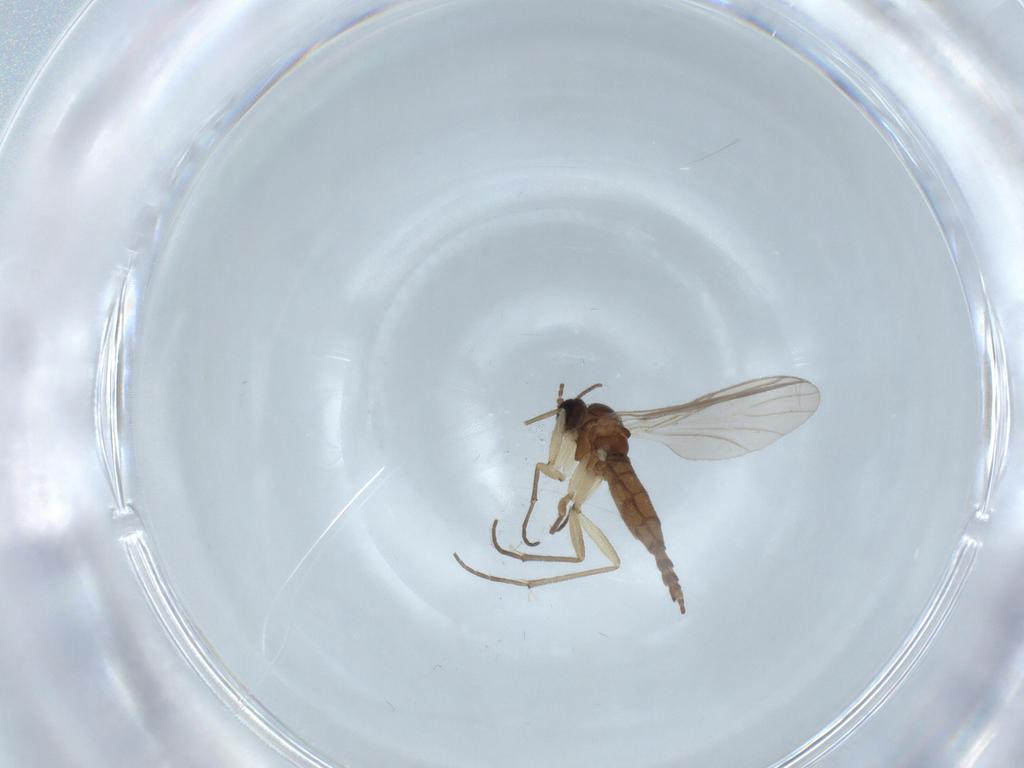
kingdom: Animalia
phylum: Arthropoda
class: Insecta
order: Diptera
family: Sciaridae
